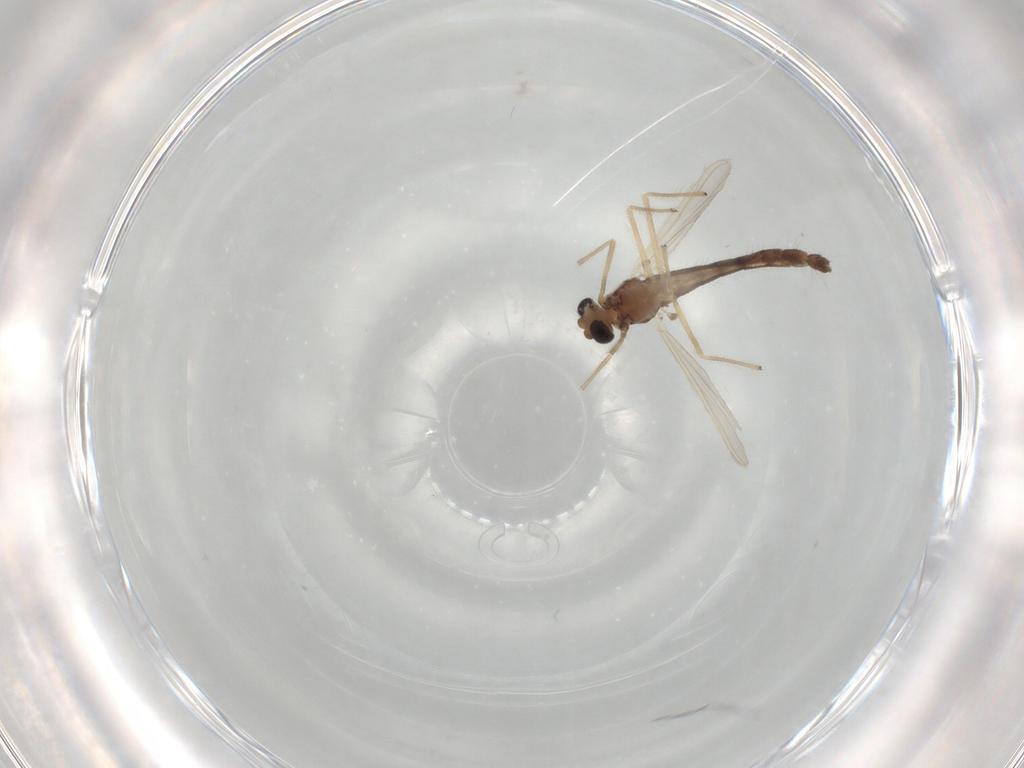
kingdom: Animalia
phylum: Arthropoda
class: Insecta
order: Diptera
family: Chironomidae
